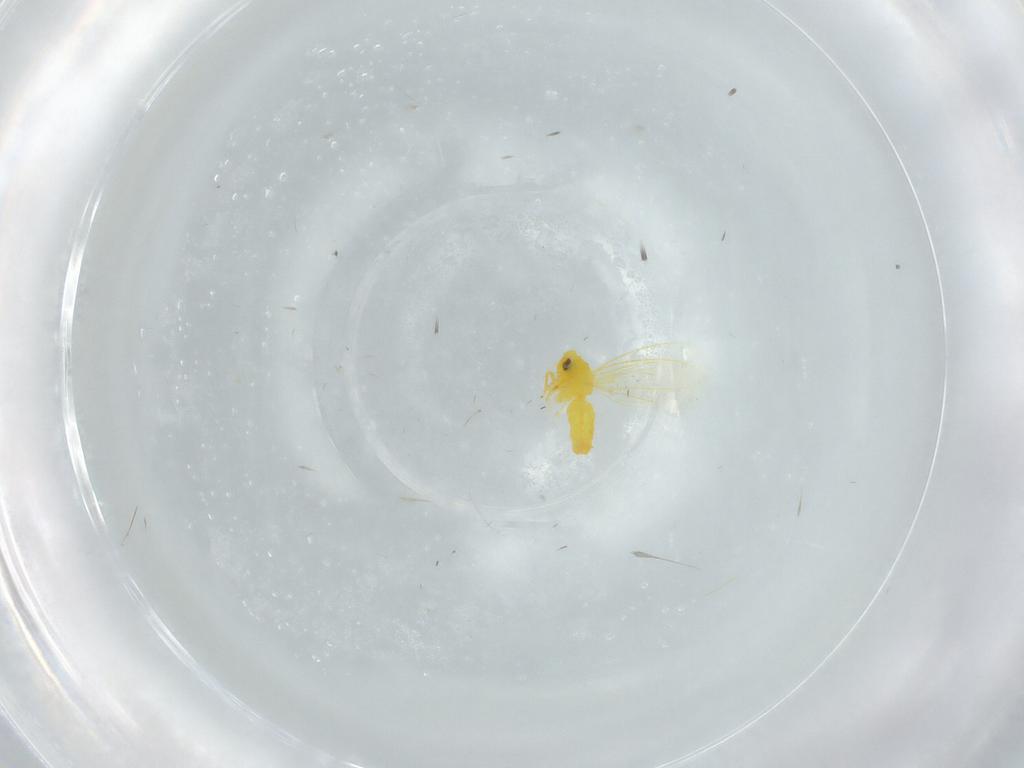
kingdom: Animalia
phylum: Arthropoda
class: Insecta
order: Hemiptera
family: Aleyrodidae
